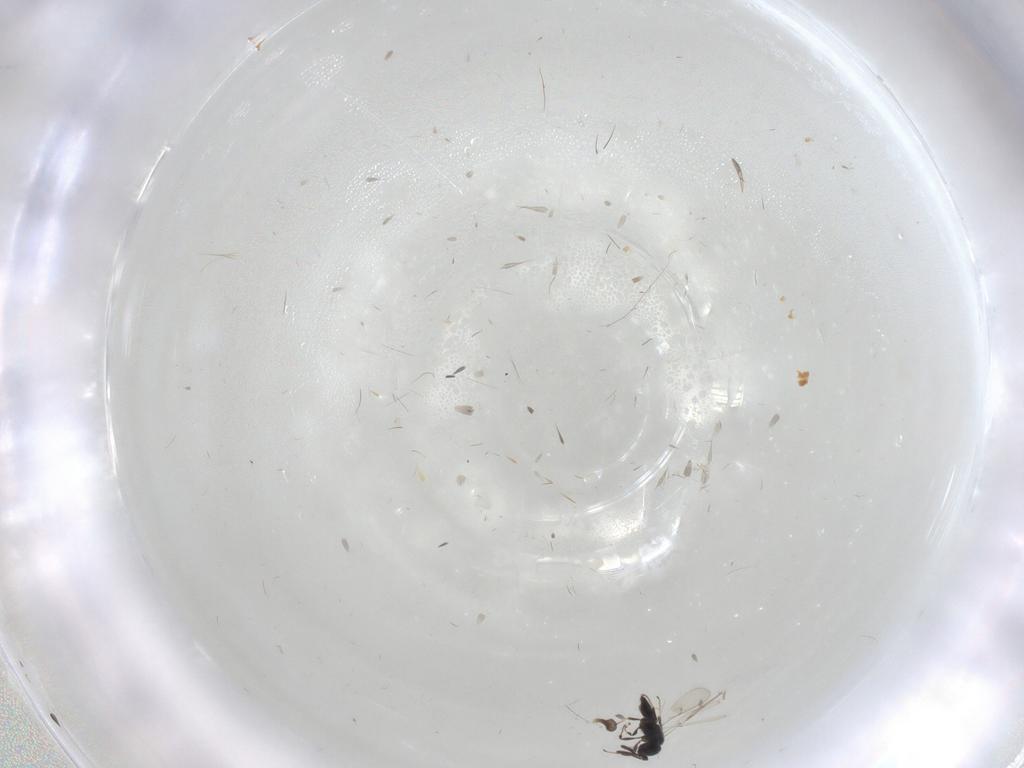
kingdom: Animalia
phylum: Arthropoda
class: Insecta
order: Hymenoptera
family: Scelionidae
